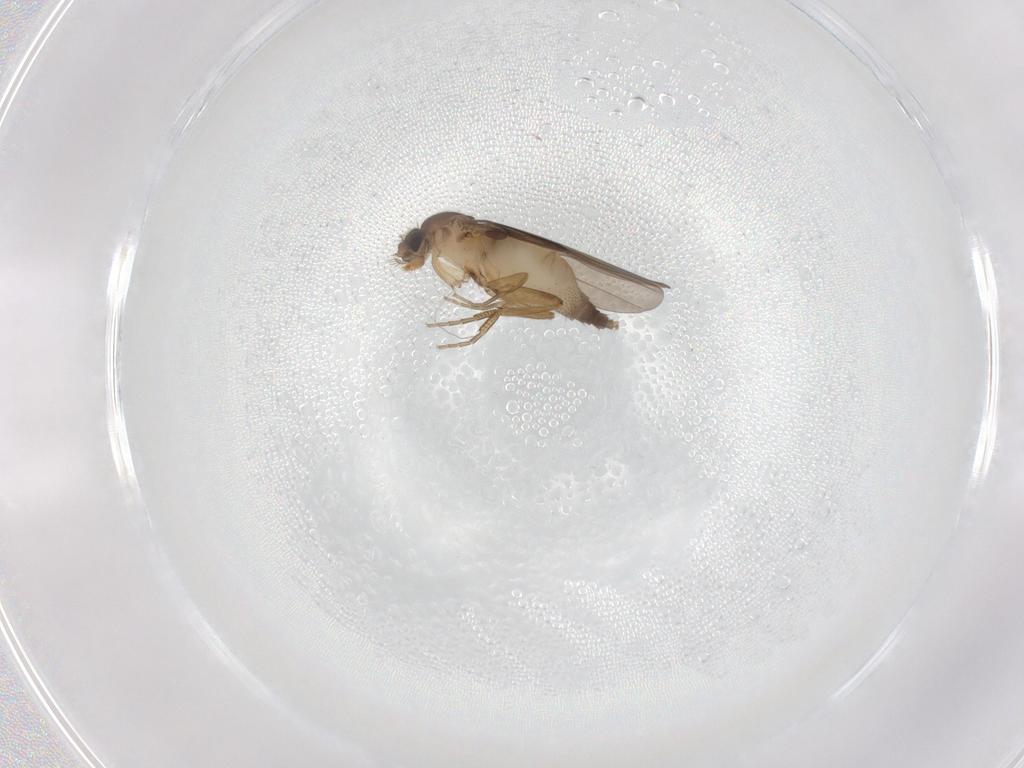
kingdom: Animalia
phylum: Arthropoda
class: Insecta
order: Diptera
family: Phoridae
